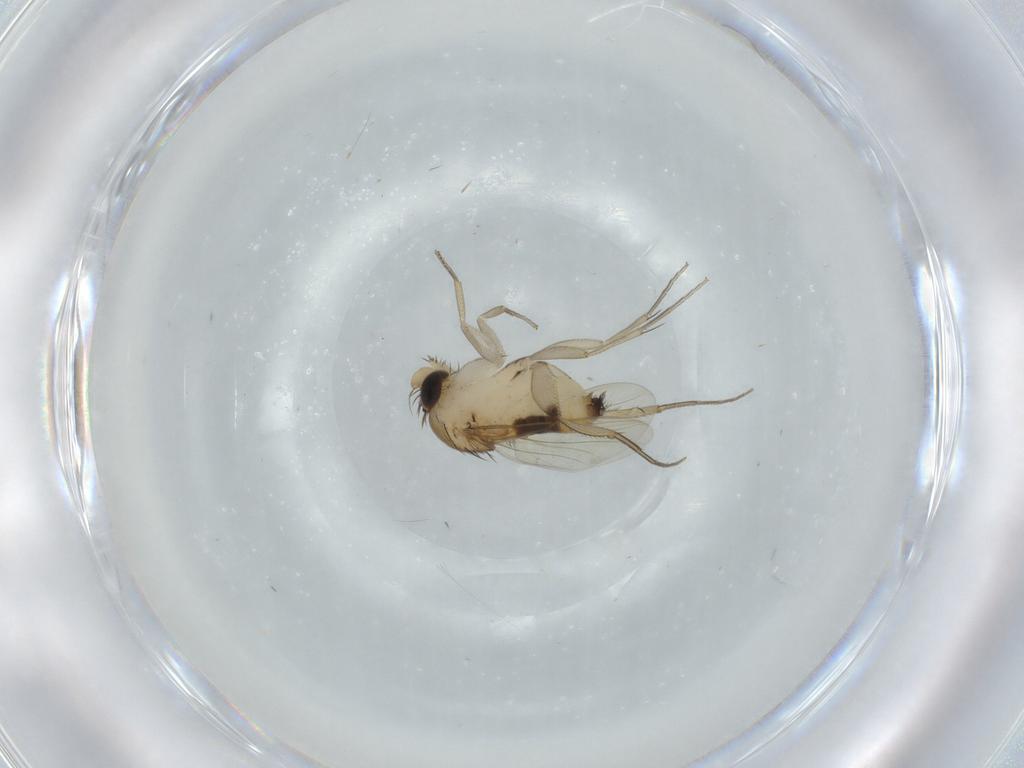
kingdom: Animalia
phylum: Arthropoda
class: Insecta
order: Diptera
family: Phoridae
